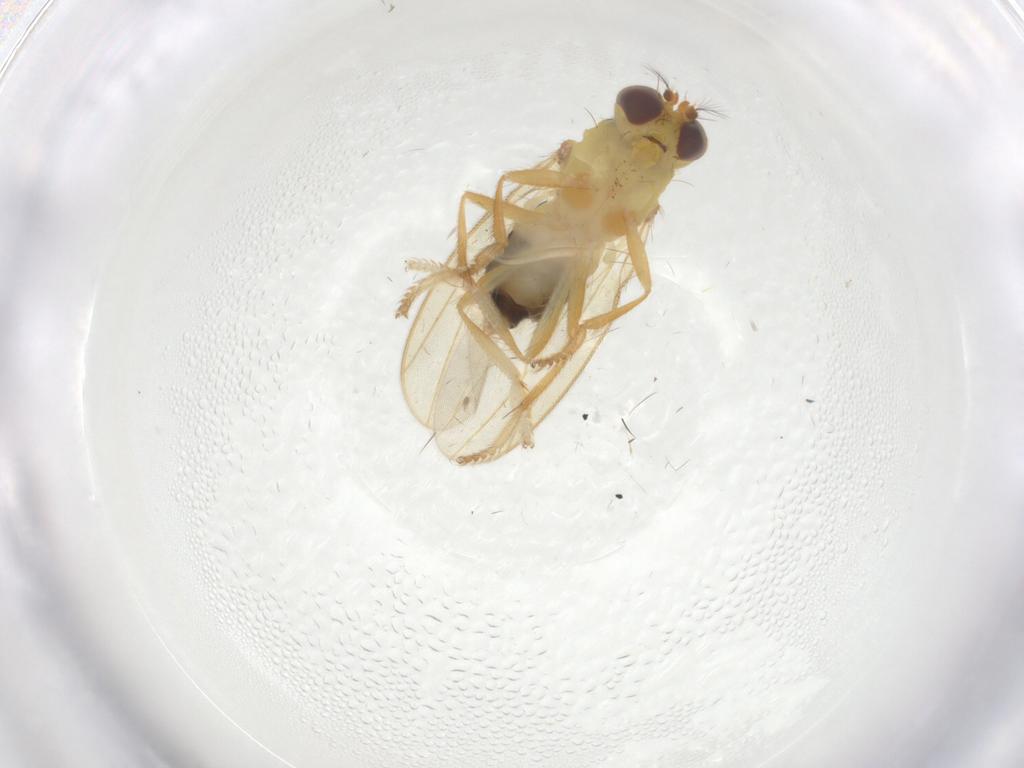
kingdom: Animalia
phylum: Arthropoda
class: Insecta
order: Diptera
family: Periscelididae
